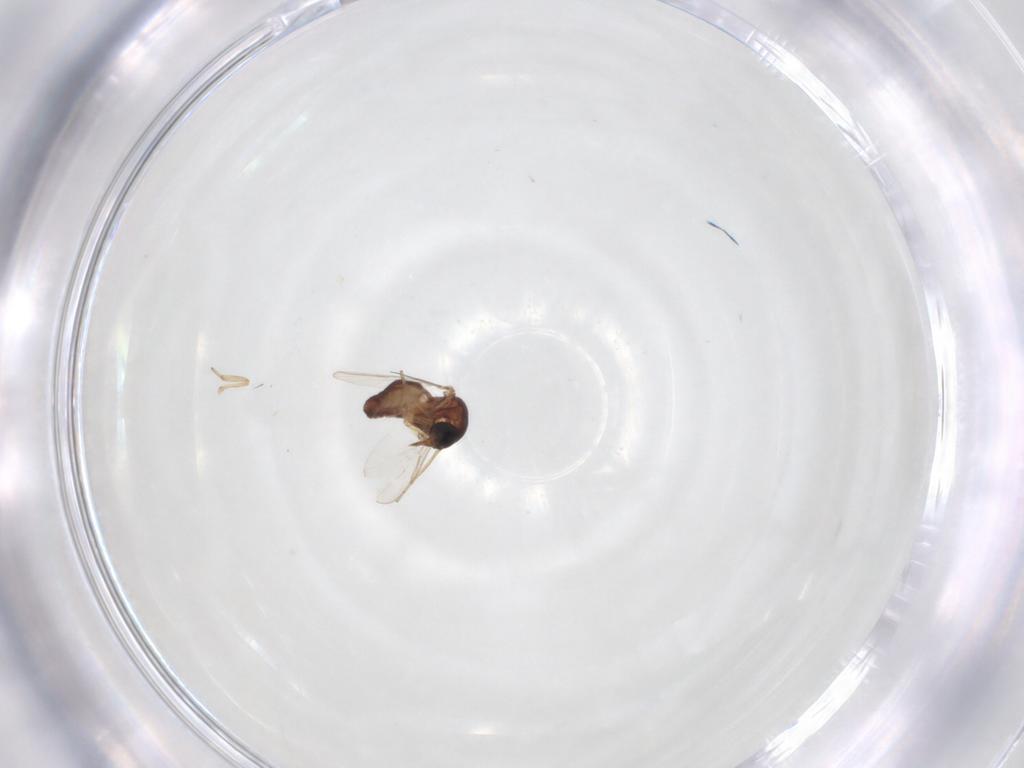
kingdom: Animalia
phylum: Arthropoda
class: Insecta
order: Diptera
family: Ceratopogonidae
